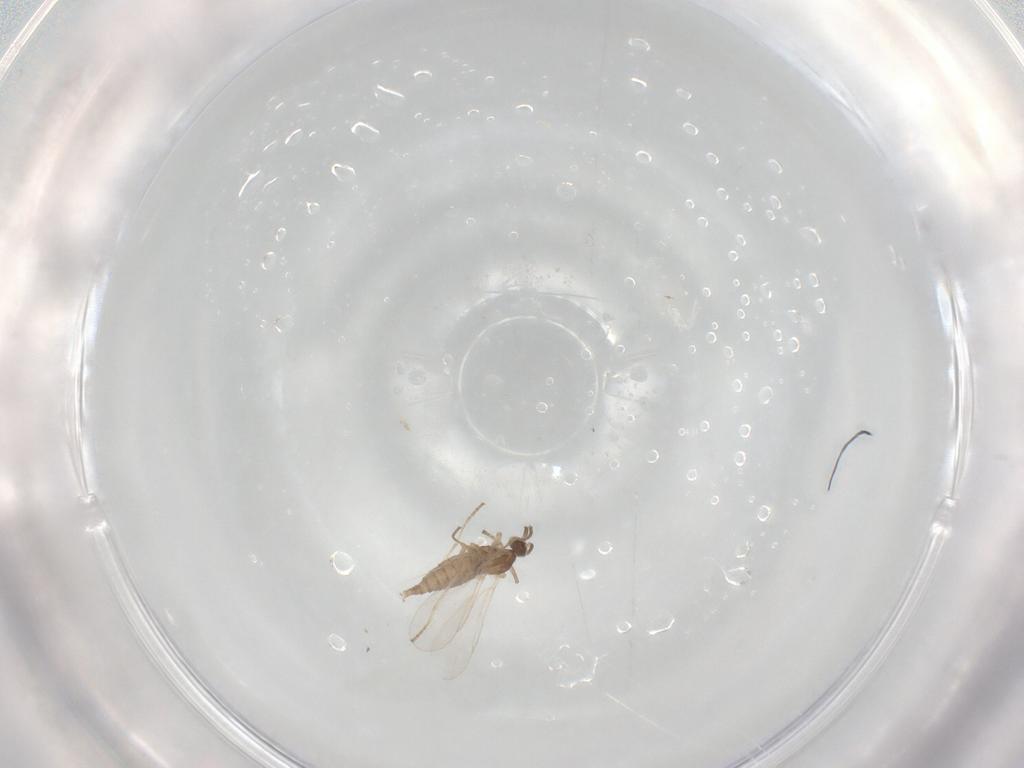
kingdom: Animalia
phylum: Arthropoda
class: Insecta
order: Diptera
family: Cecidomyiidae
